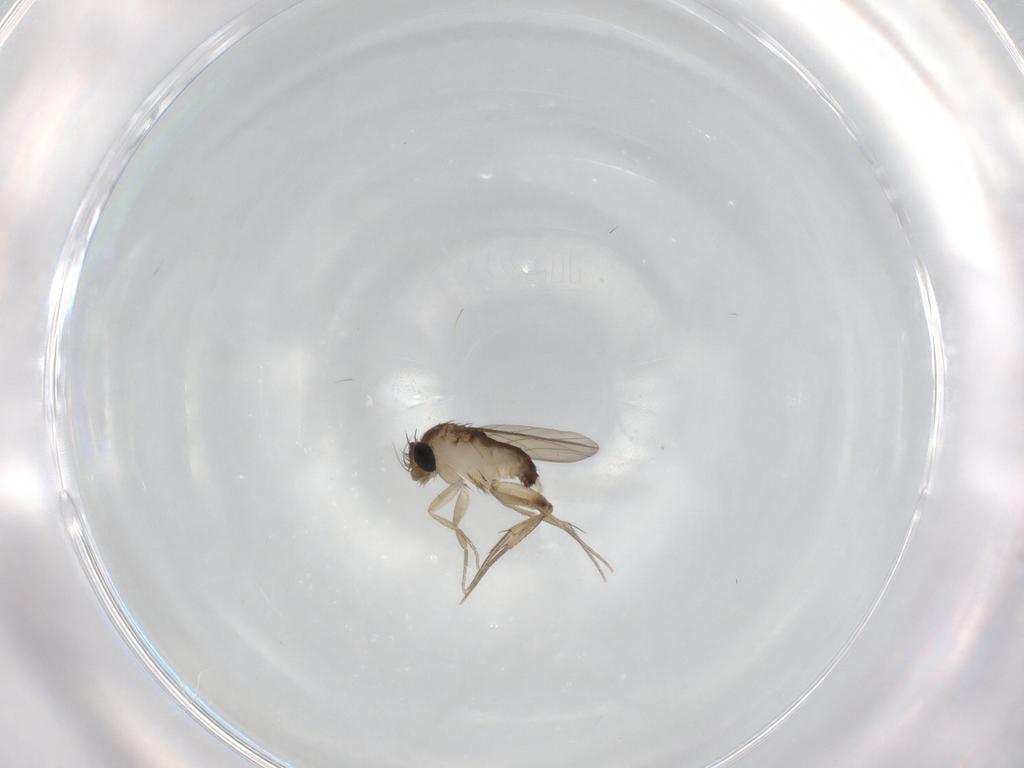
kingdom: Animalia
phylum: Arthropoda
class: Insecta
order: Diptera
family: Phoridae
